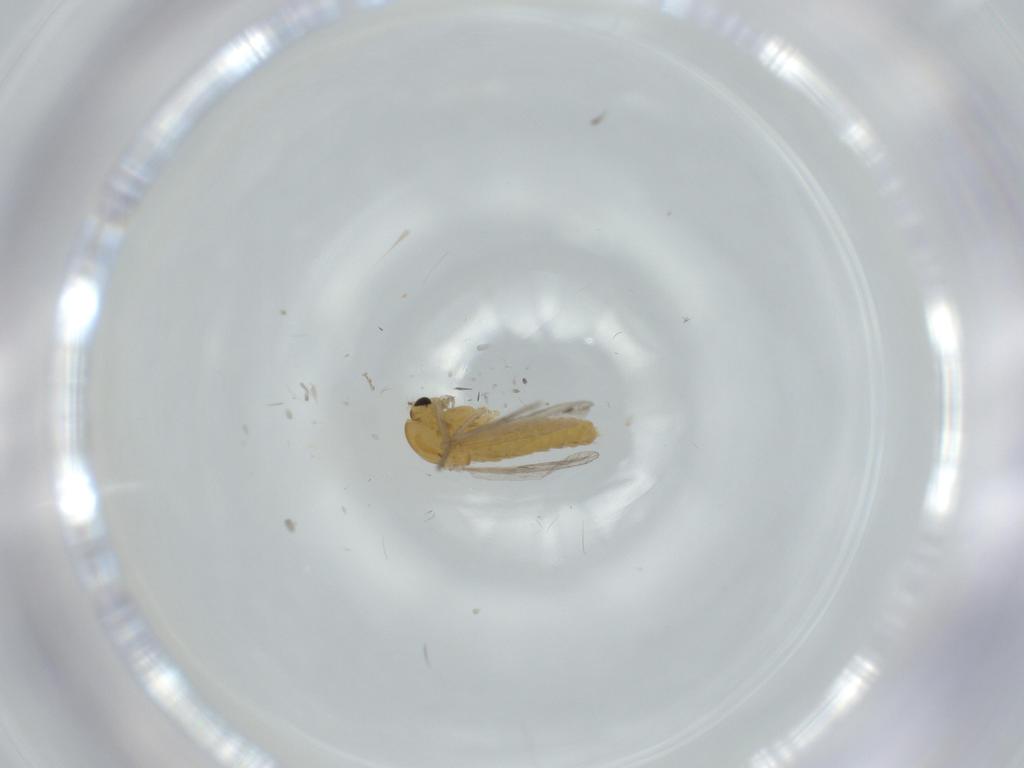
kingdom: Animalia
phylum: Arthropoda
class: Insecta
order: Diptera
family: Chironomidae
